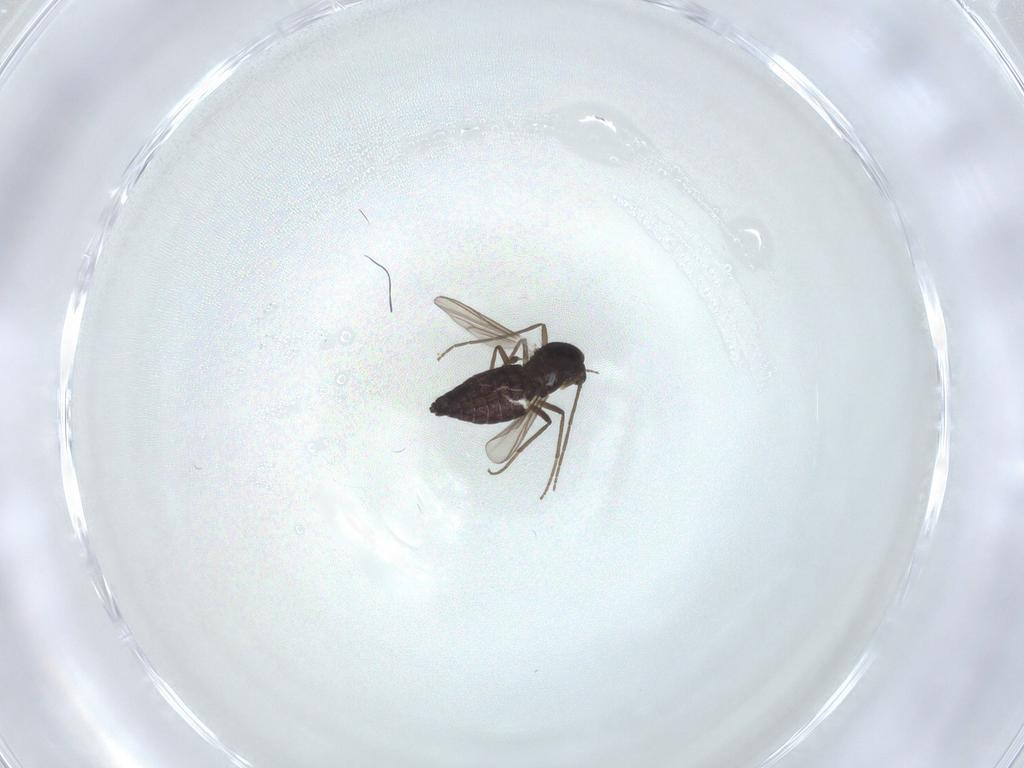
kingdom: Animalia
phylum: Arthropoda
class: Insecta
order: Diptera
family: Chironomidae
